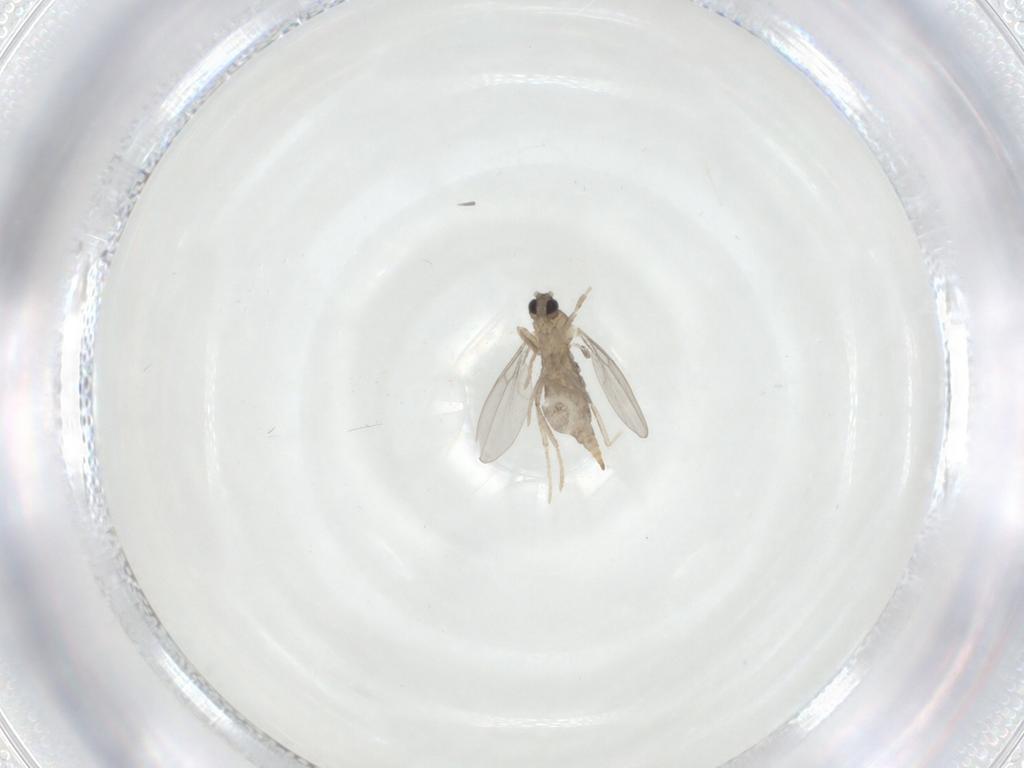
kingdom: Animalia
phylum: Arthropoda
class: Insecta
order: Diptera
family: Cecidomyiidae
